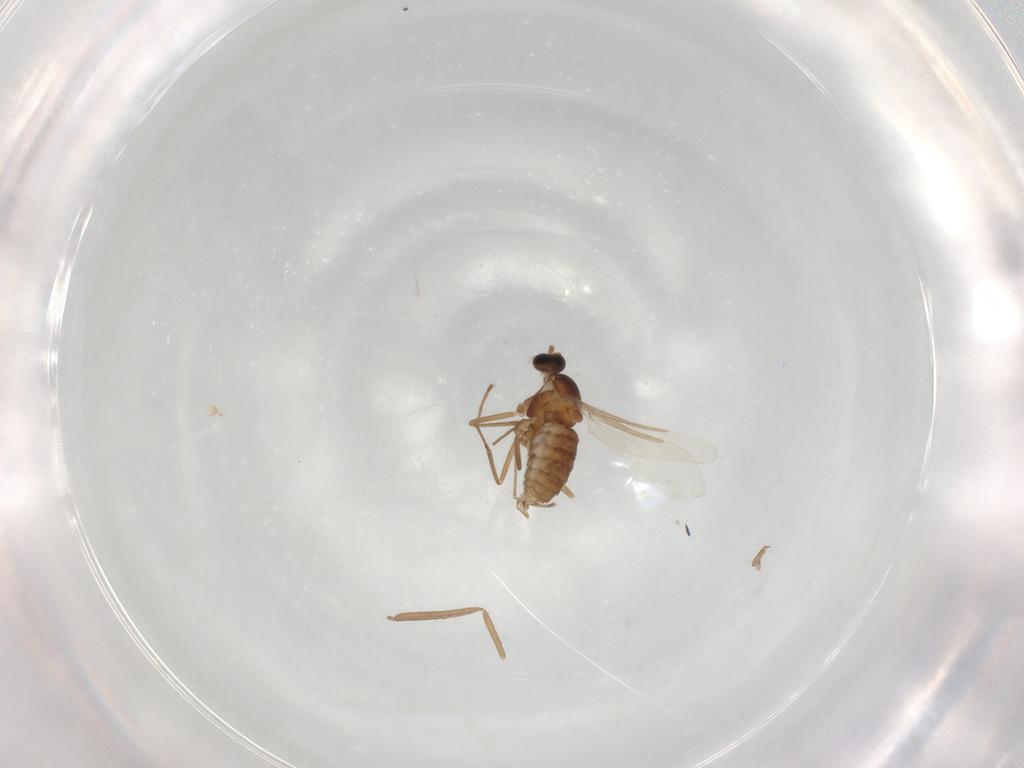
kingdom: Animalia
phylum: Arthropoda
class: Insecta
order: Diptera
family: Cecidomyiidae
